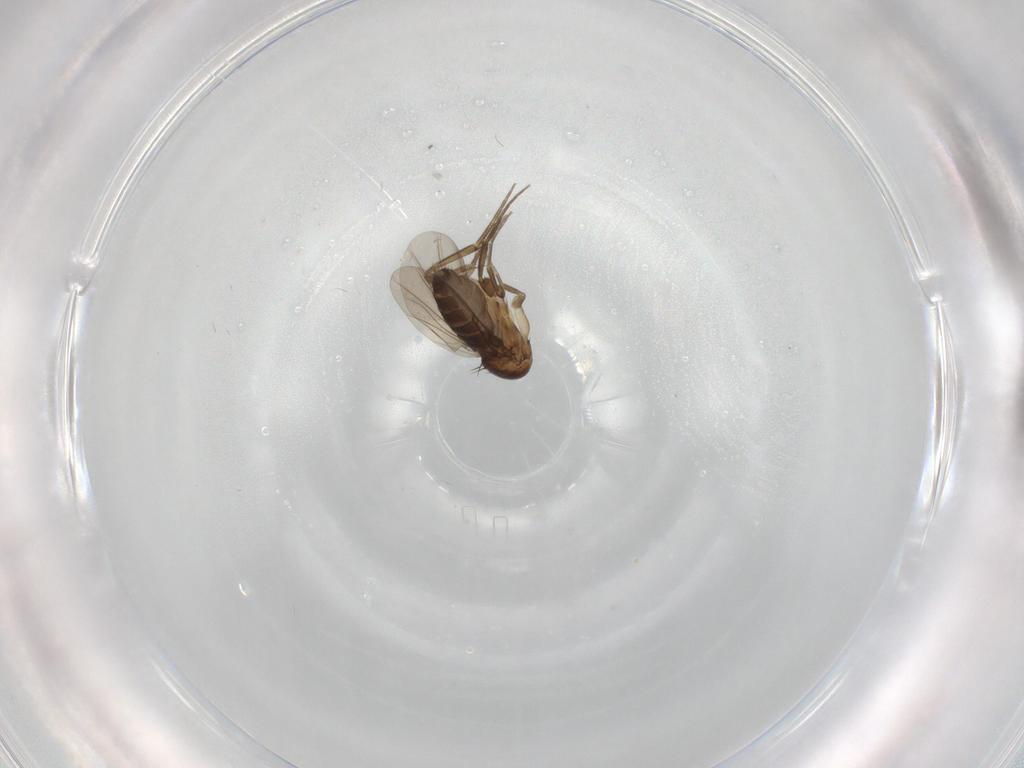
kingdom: Animalia
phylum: Arthropoda
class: Insecta
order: Diptera
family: Phoridae
